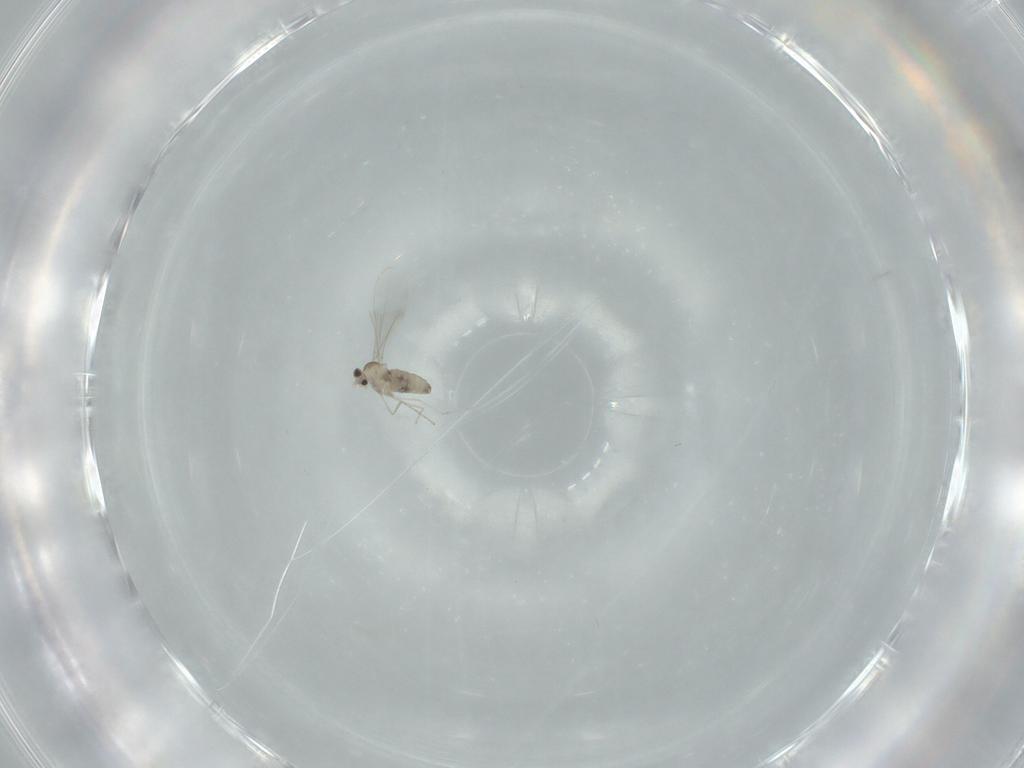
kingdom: Animalia
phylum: Arthropoda
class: Insecta
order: Diptera
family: Cecidomyiidae
